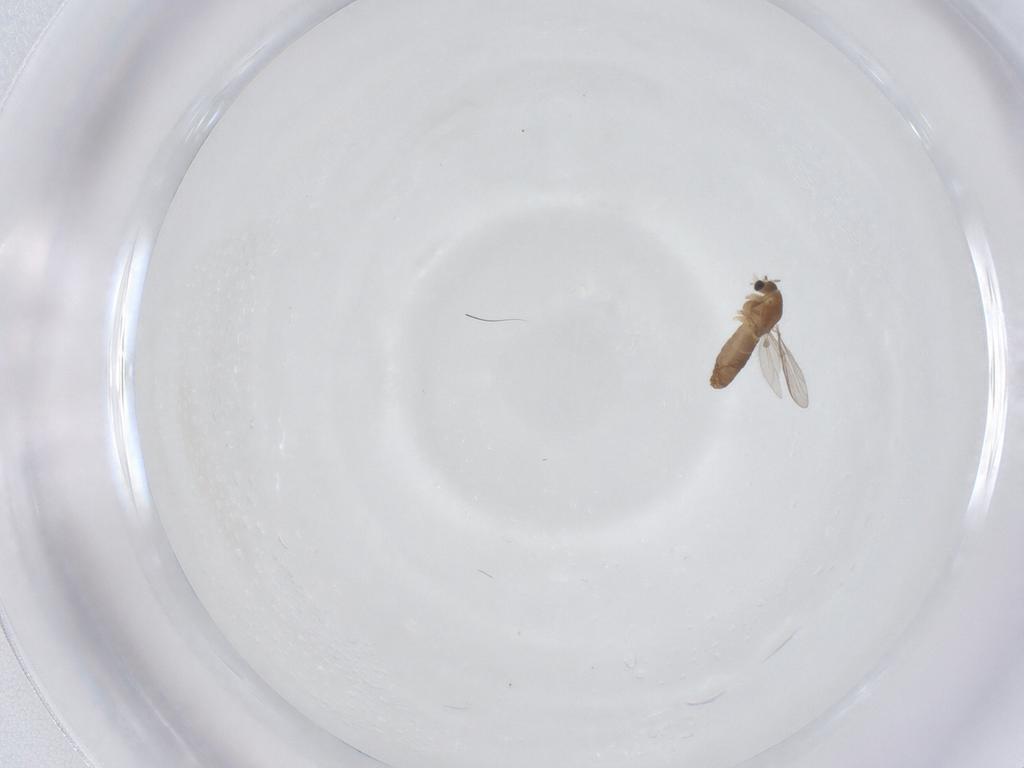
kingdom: Animalia
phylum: Arthropoda
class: Insecta
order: Diptera
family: Chironomidae
